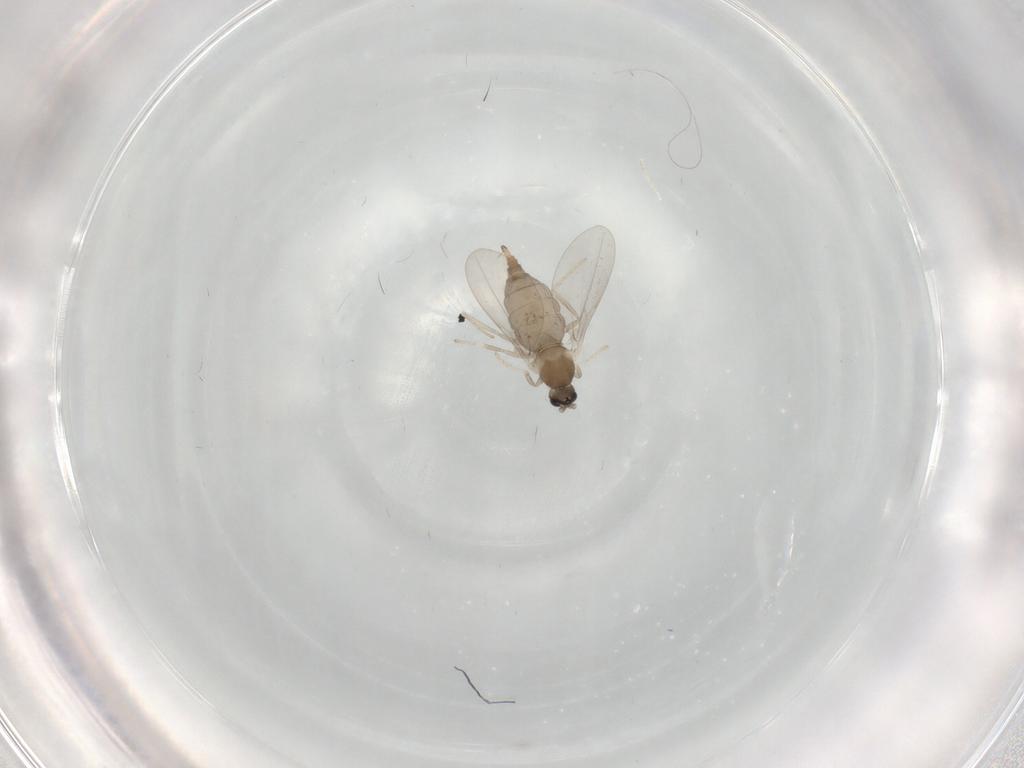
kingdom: Animalia
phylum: Arthropoda
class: Insecta
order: Diptera
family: Cecidomyiidae
